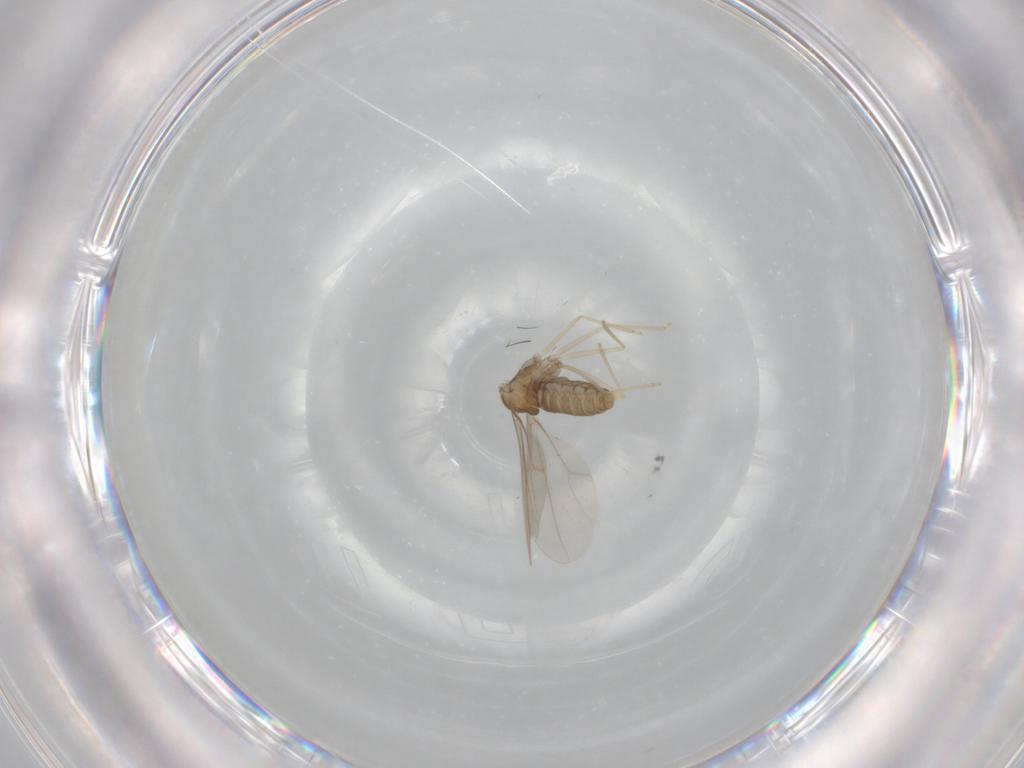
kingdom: Animalia
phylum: Arthropoda
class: Insecta
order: Diptera
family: Cecidomyiidae
